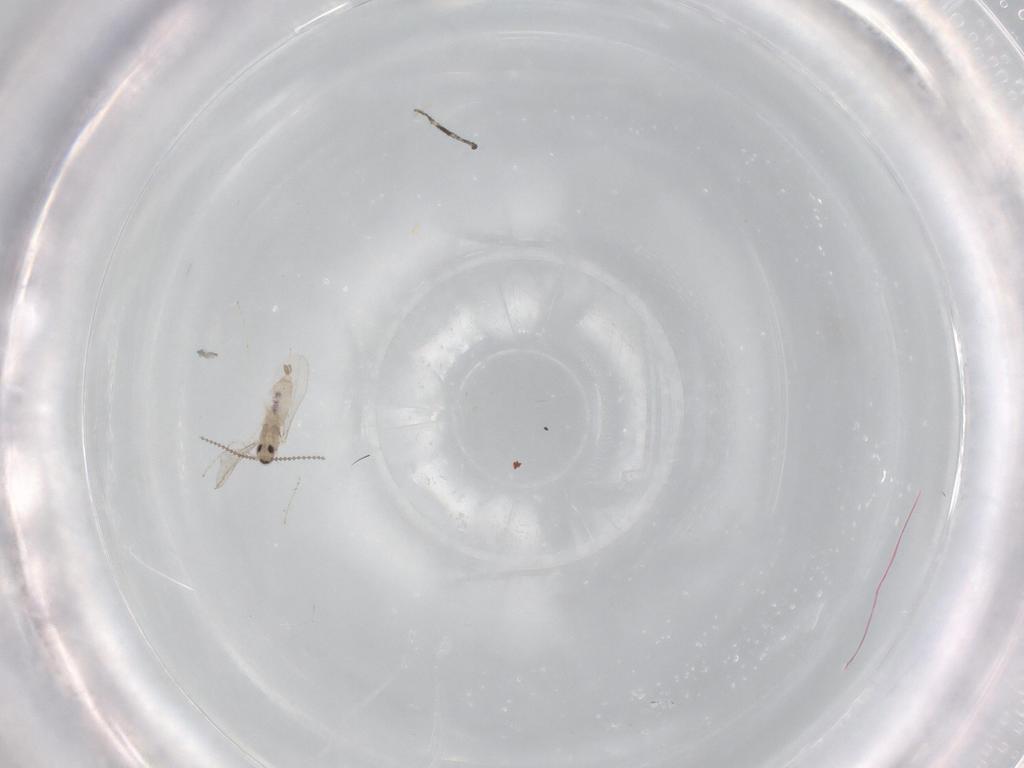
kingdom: Animalia
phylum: Arthropoda
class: Insecta
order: Diptera
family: Cecidomyiidae
